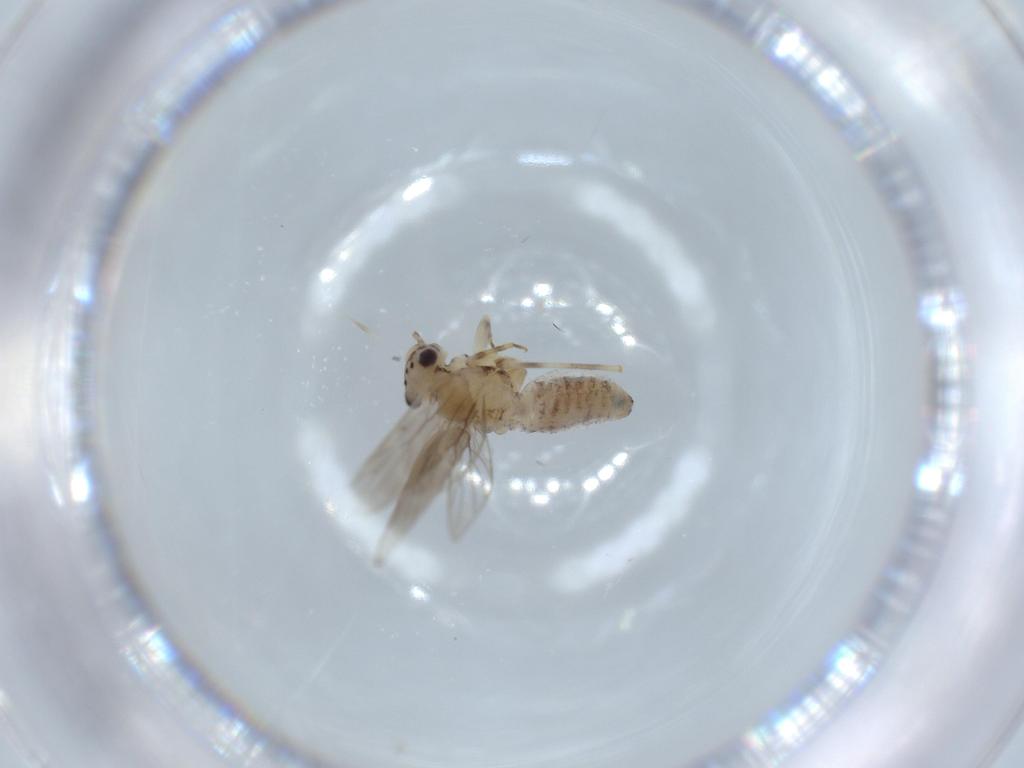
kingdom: Animalia
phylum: Arthropoda
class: Insecta
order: Psocodea
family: Lepidopsocidae
